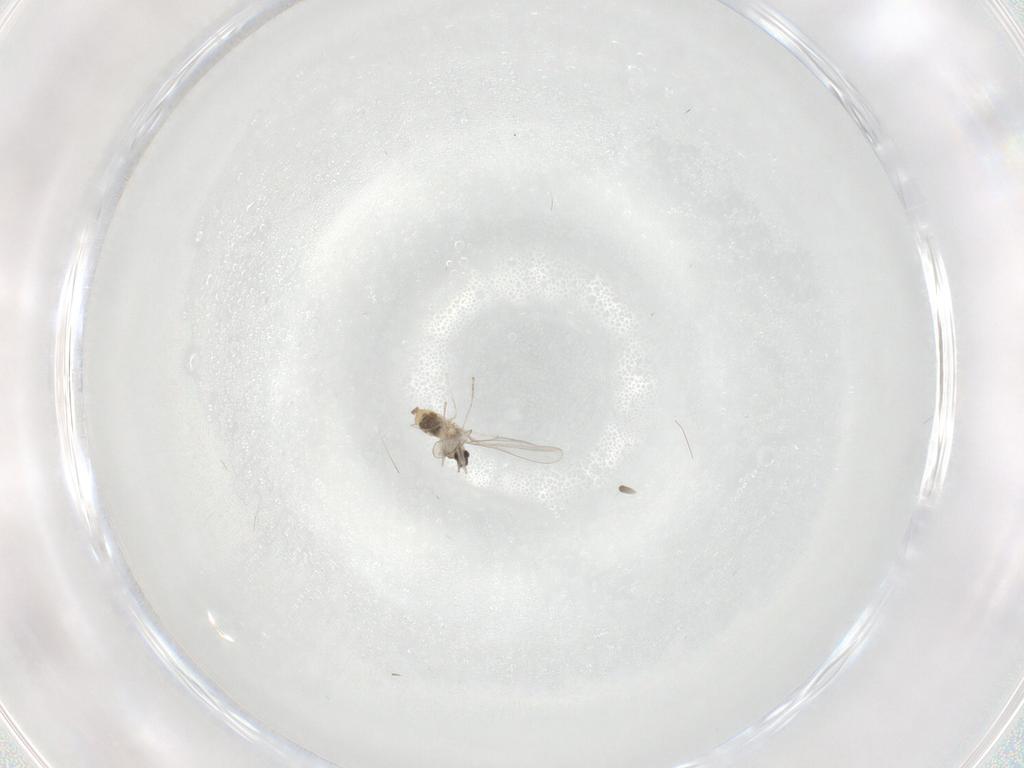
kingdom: Animalia
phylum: Arthropoda
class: Insecta
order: Diptera
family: Cecidomyiidae
